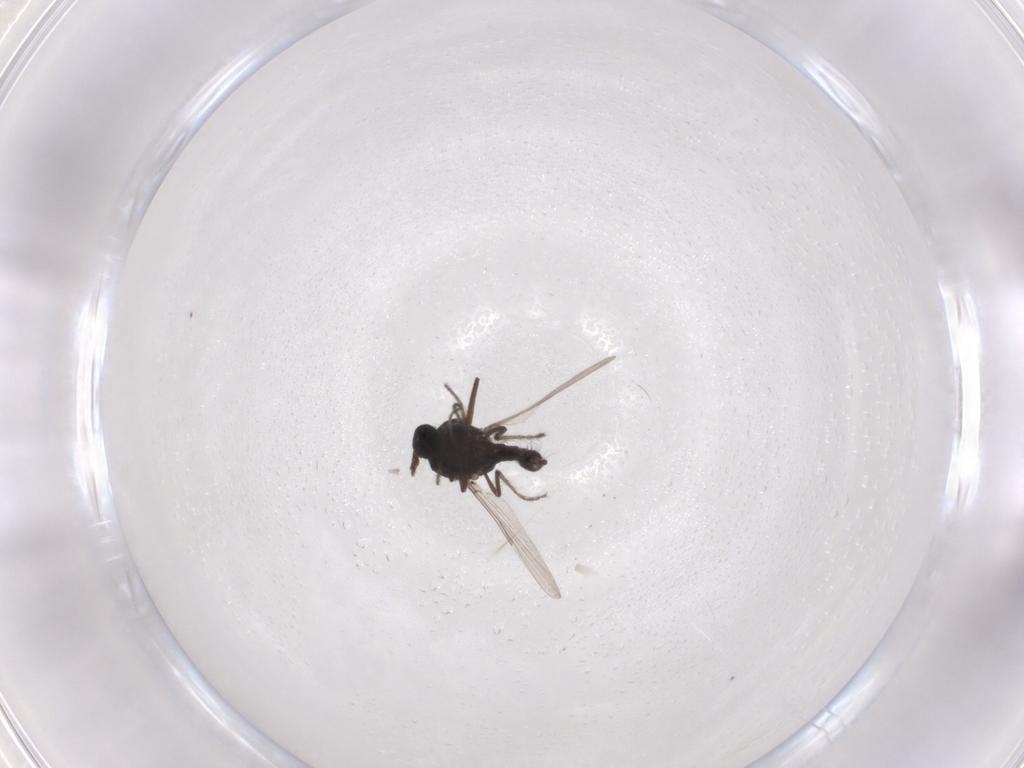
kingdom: Animalia
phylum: Arthropoda
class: Insecta
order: Diptera
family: Ceratopogonidae
